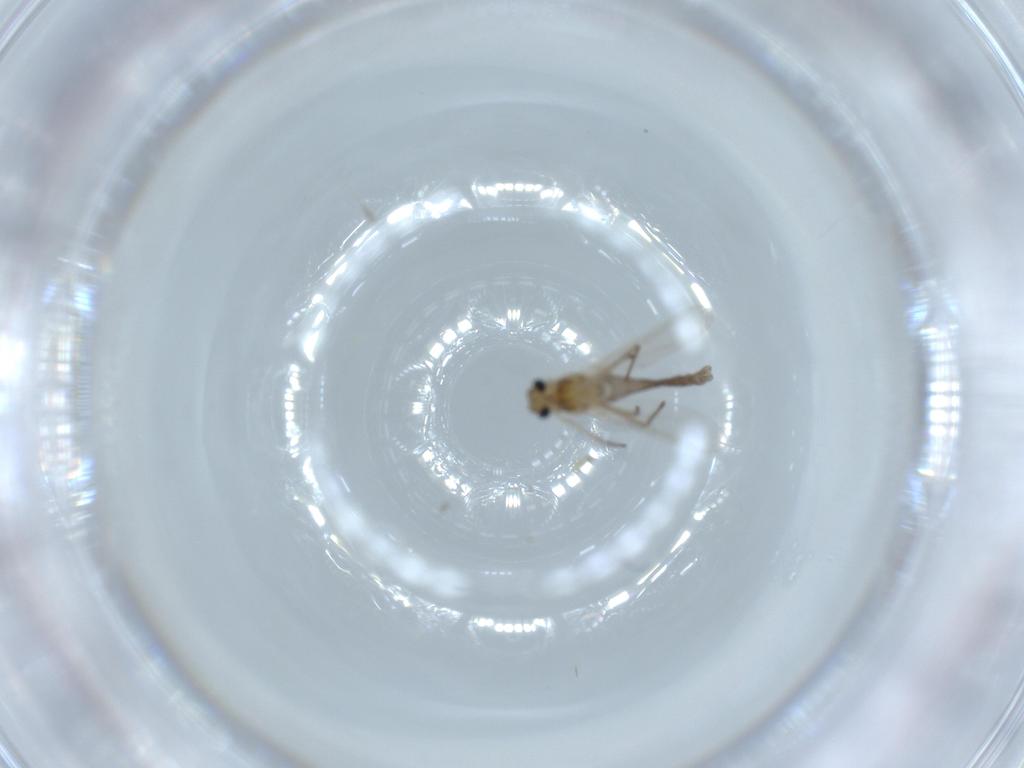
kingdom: Animalia
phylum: Arthropoda
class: Insecta
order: Diptera
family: Chironomidae
